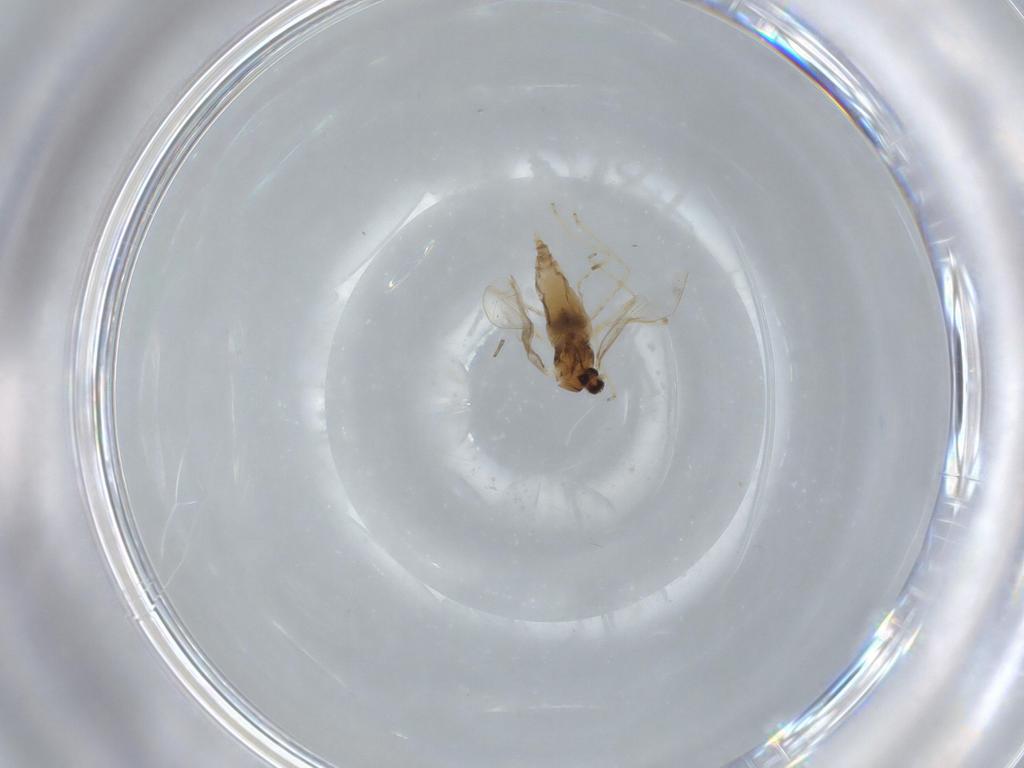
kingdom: Animalia
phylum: Arthropoda
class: Insecta
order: Diptera
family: Cecidomyiidae
